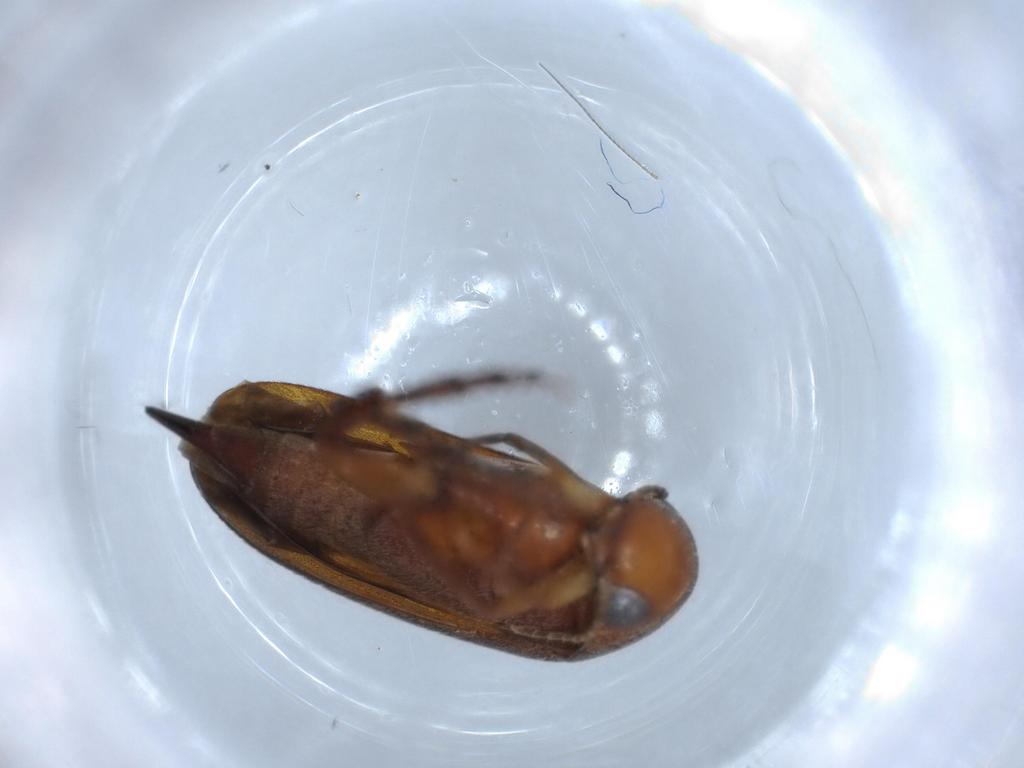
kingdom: Animalia
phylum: Arthropoda
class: Insecta
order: Coleoptera
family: Mordellidae
